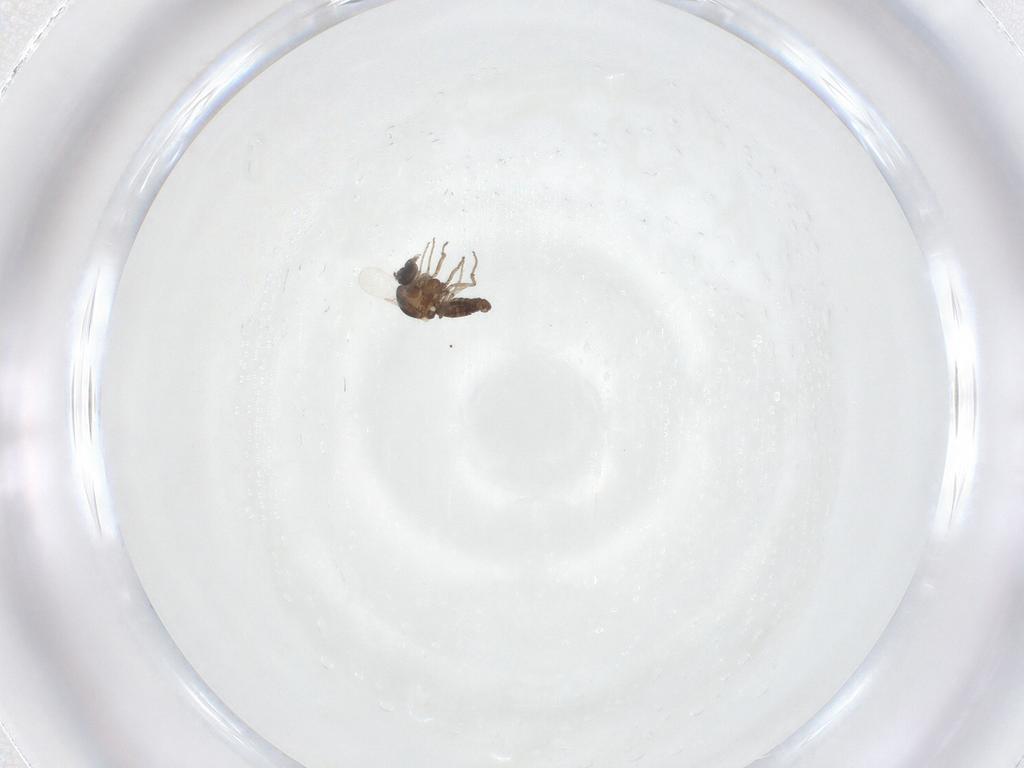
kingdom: Animalia
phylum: Arthropoda
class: Insecta
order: Diptera
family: Ceratopogonidae
